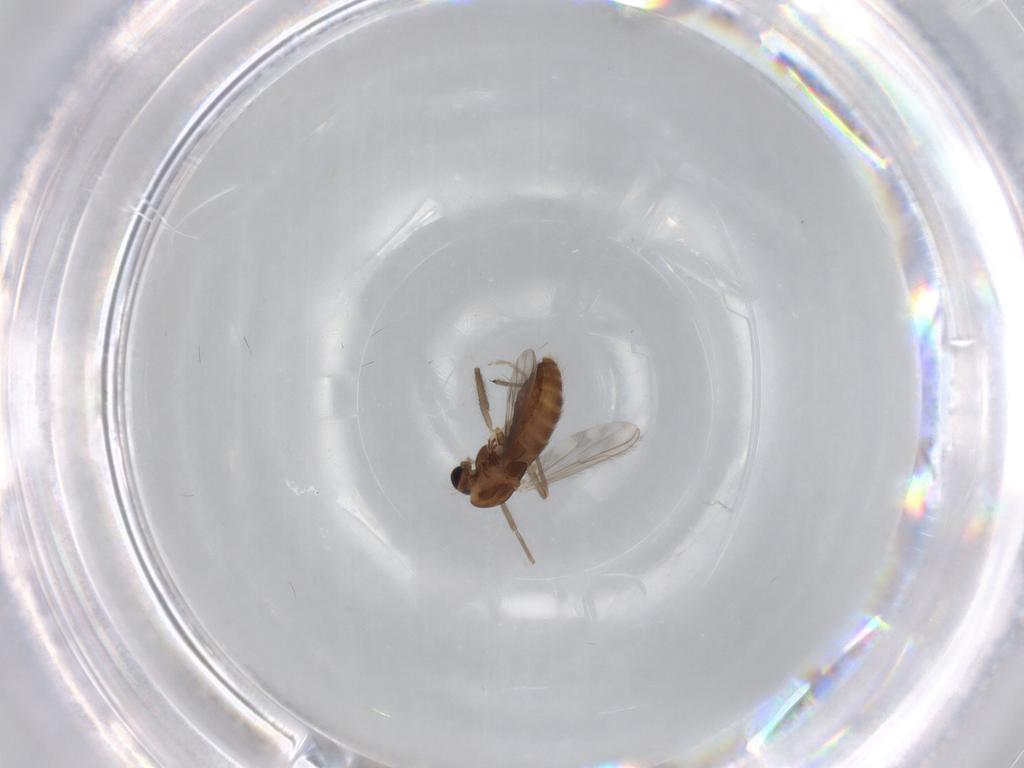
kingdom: Animalia
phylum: Arthropoda
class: Insecta
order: Diptera
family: Chironomidae
